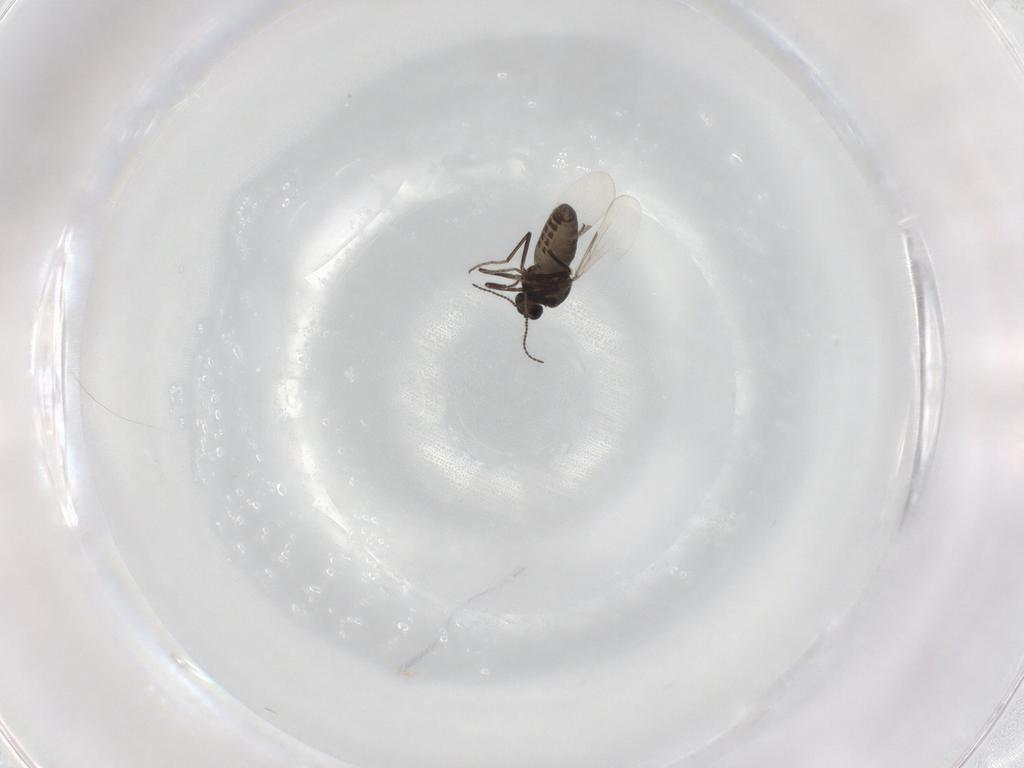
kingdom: Animalia
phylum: Arthropoda
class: Insecta
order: Diptera
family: Ceratopogonidae
